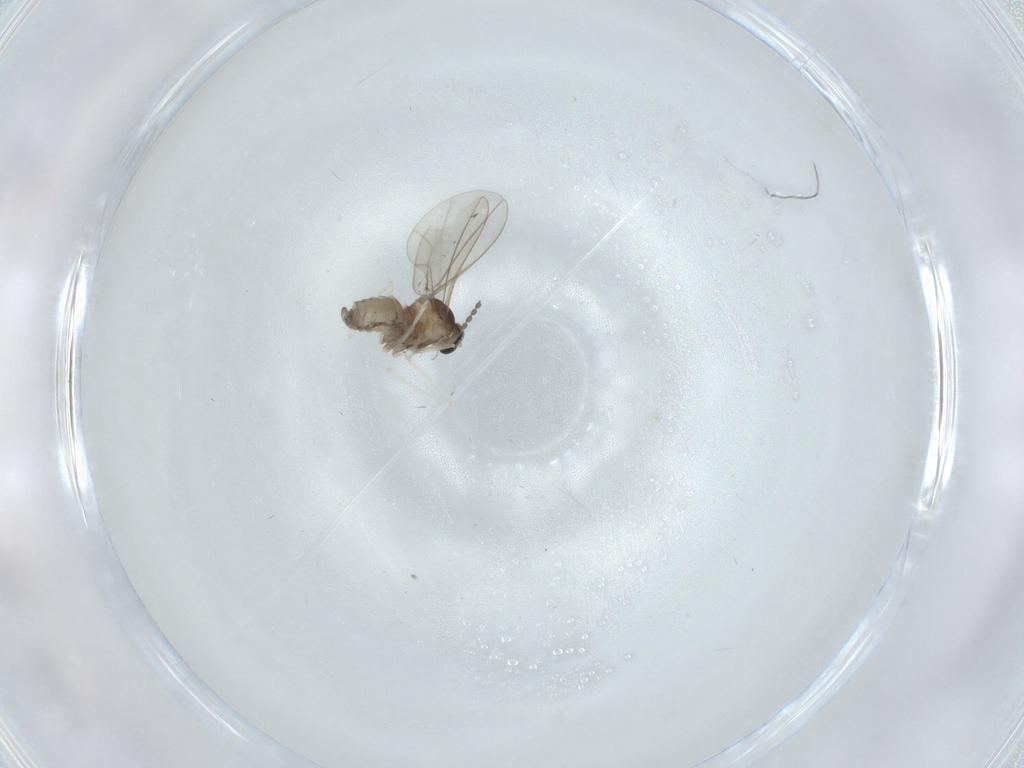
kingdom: Animalia
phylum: Arthropoda
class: Insecta
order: Diptera
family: Cecidomyiidae
